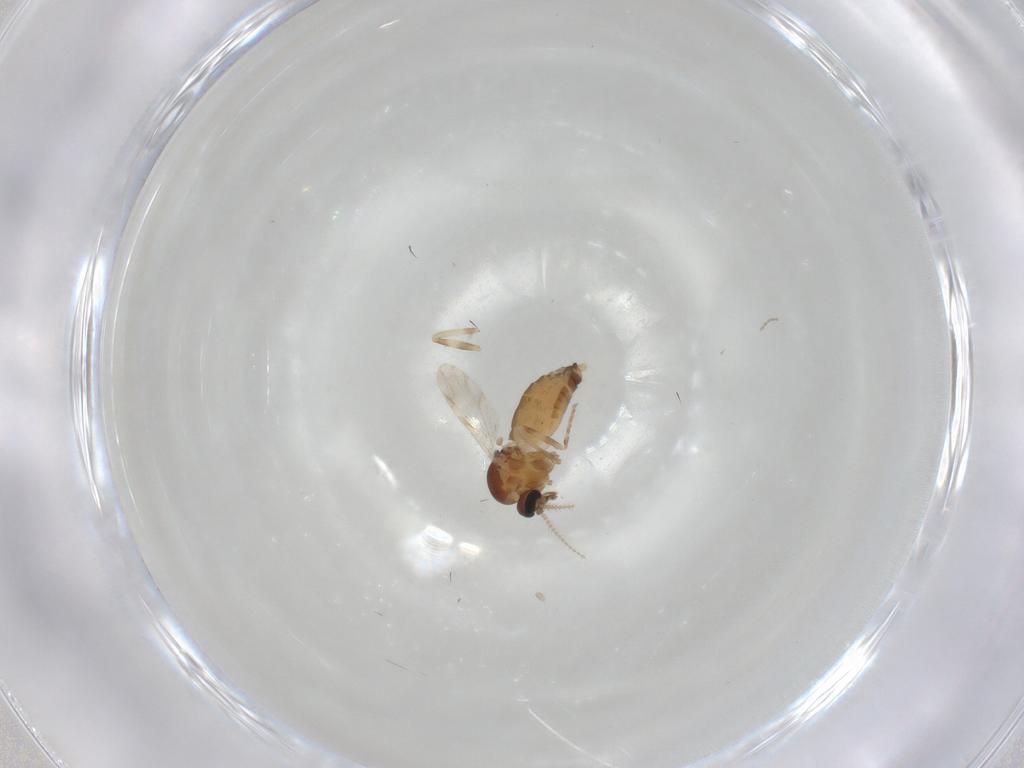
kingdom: Animalia
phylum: Arthropoda
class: Insecta
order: Diptera
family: Ceratopogonidae
